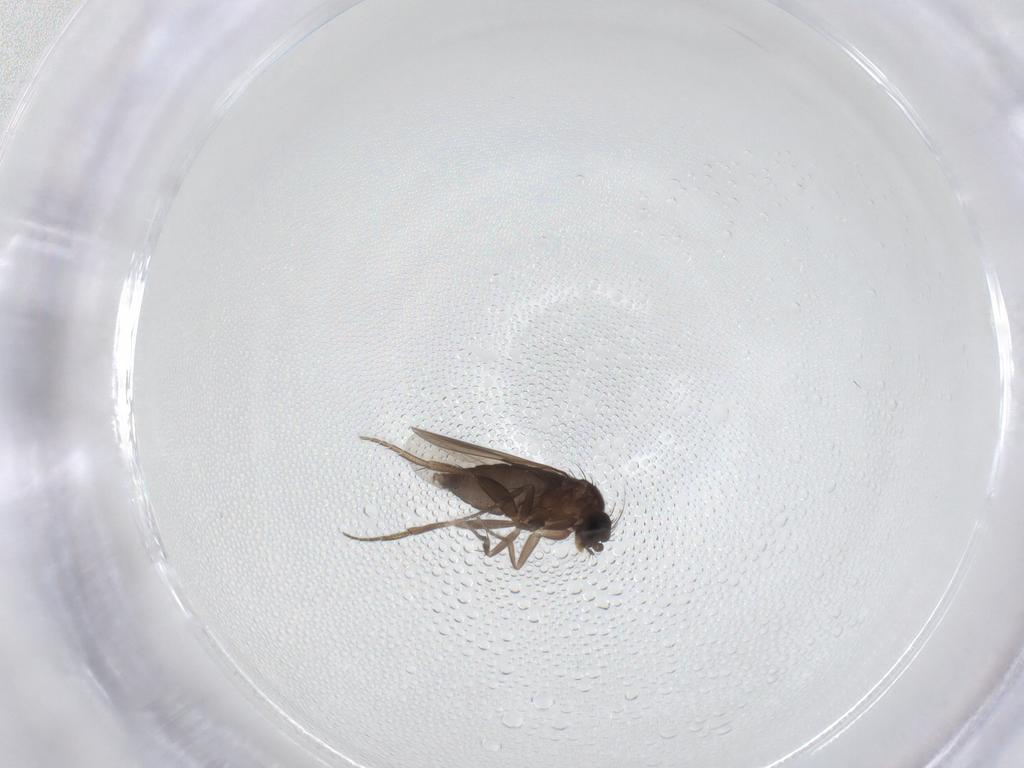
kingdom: Animalia
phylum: Arthropoda
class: Insecta
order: Diptera
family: Phoridae
